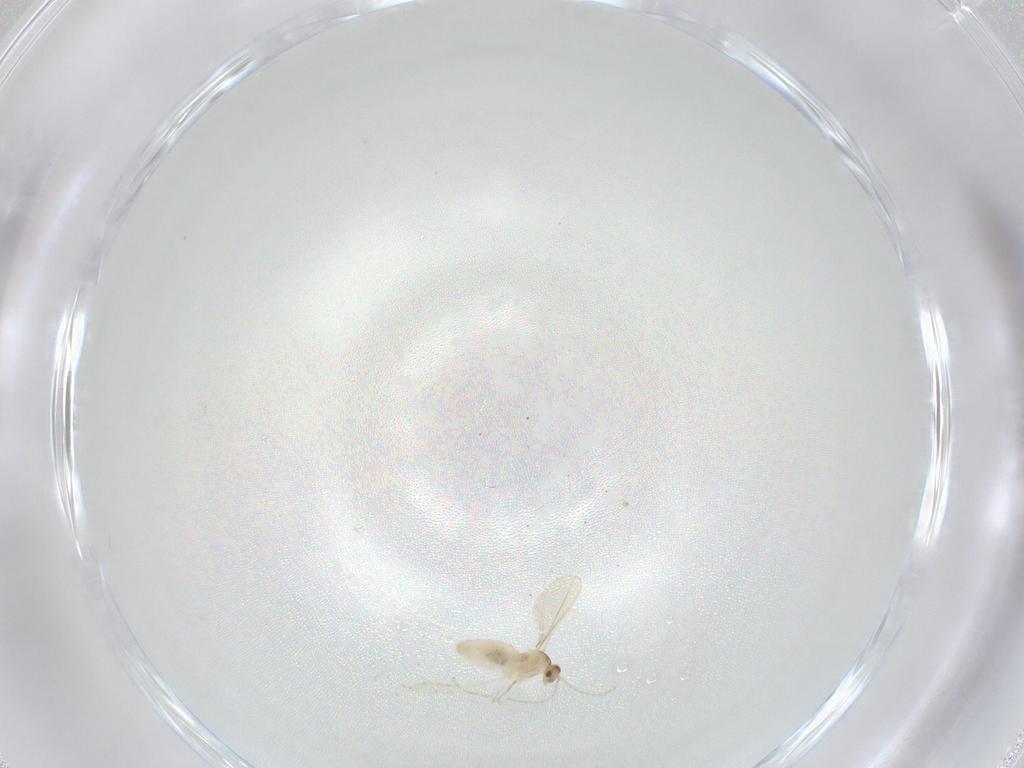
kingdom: Animalia
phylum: Arthropoda
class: Insecta
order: Diptera
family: Cecidomyiidae
